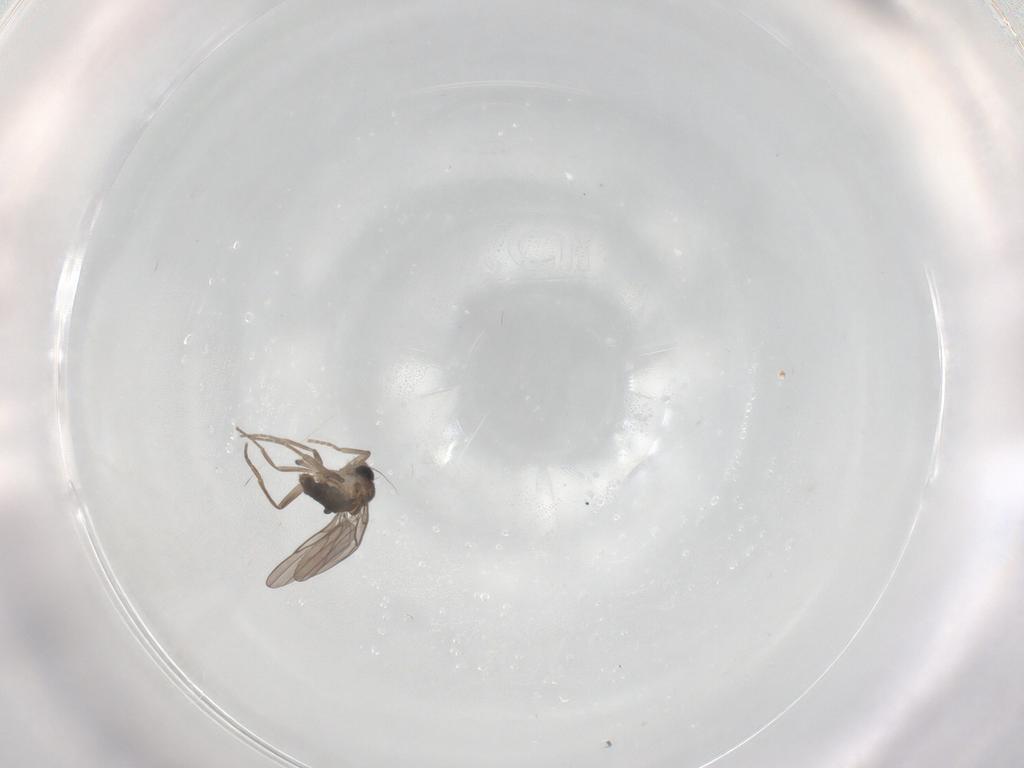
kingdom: Animalia
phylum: Arthropoda
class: Insecta
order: Diptera
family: Phoridae
